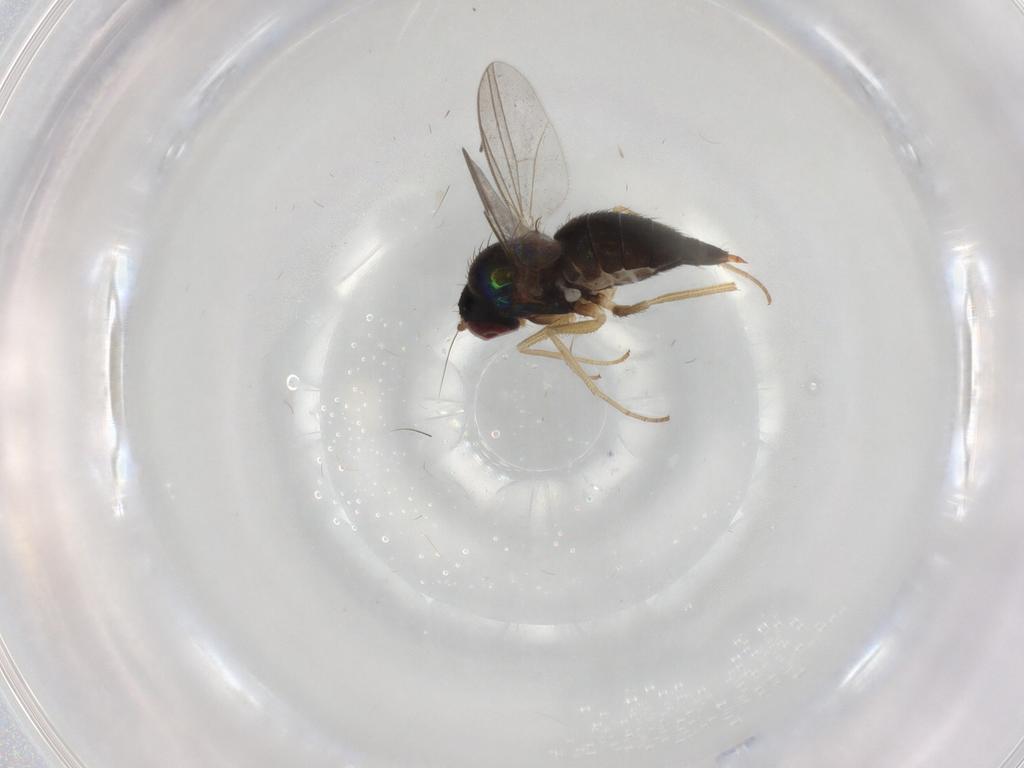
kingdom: Animalia
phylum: Arthropoda
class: Insecta
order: Diptera
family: Dolichopodidae
